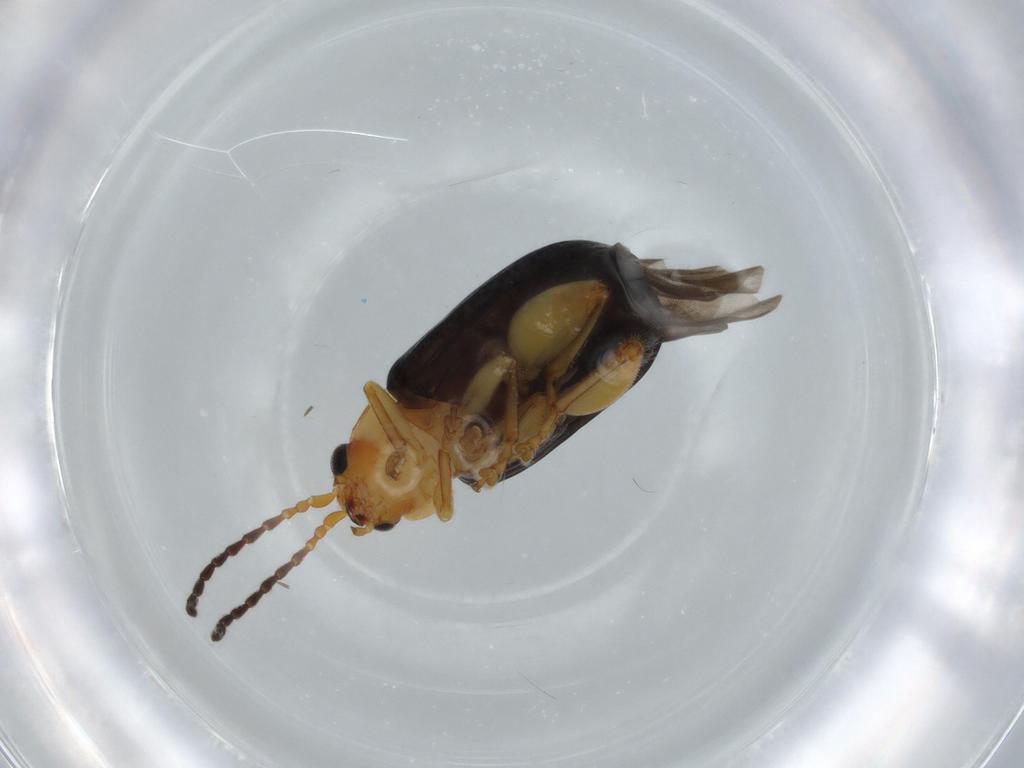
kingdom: Animalia
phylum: Arthropoda
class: Insecta
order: Coleoptera
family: Chrysomelidae
